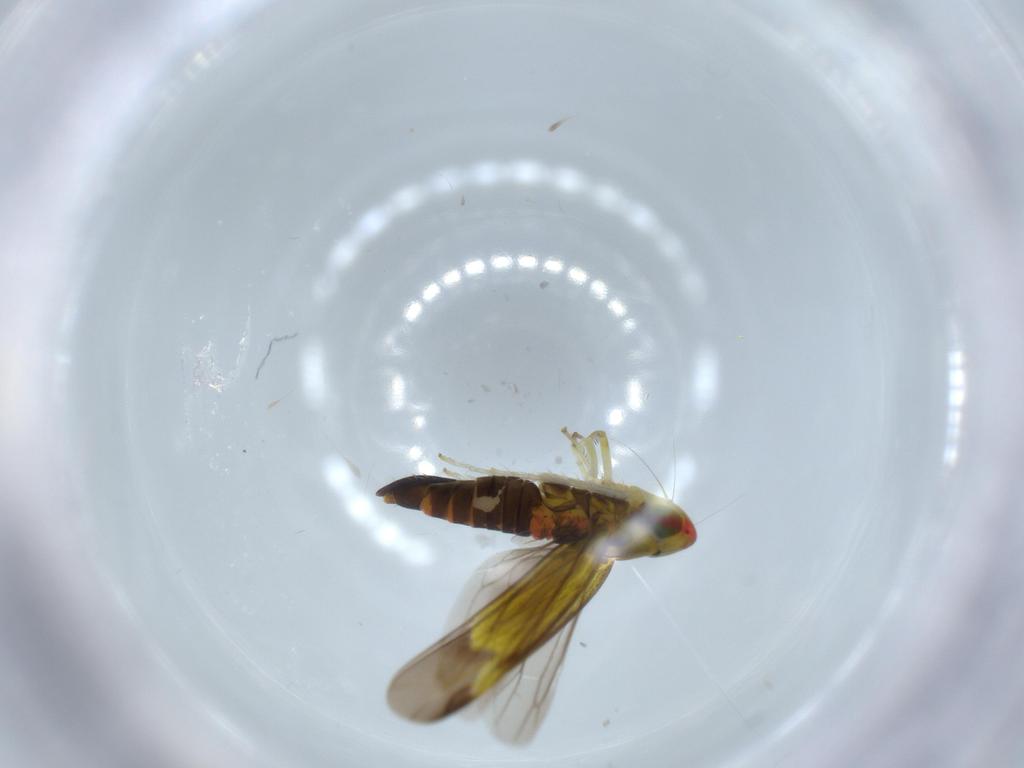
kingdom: Animalia
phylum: Arthropoda
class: Insecta
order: Hemiptera
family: Cicadellidae
